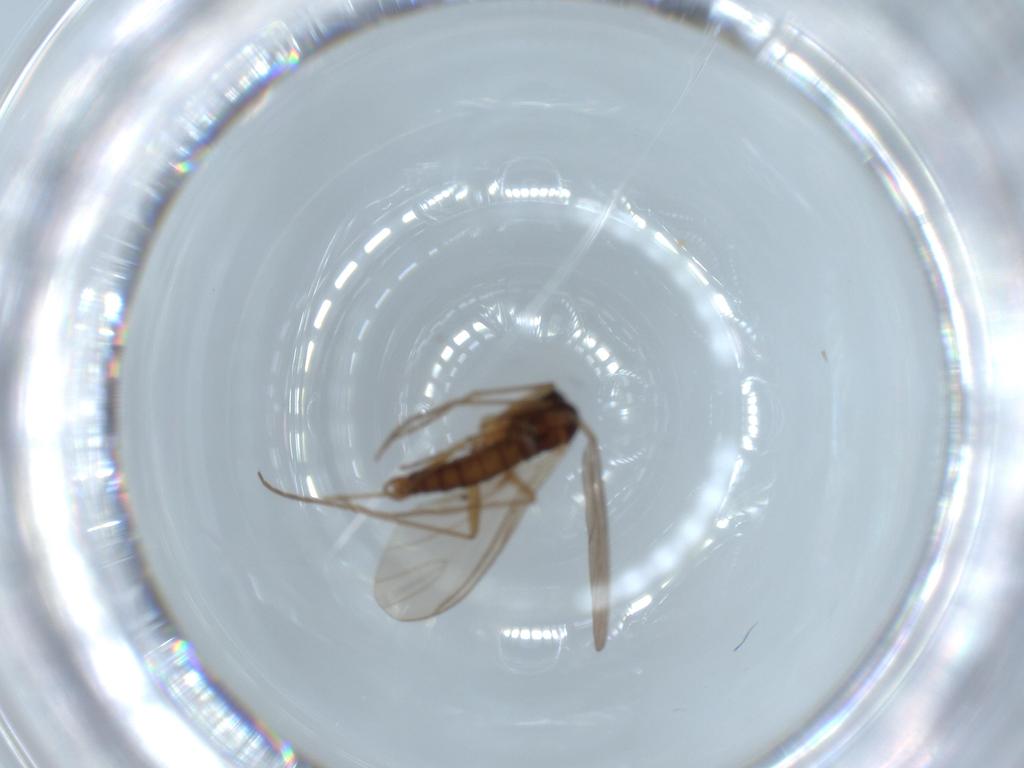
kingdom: Animalia
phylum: Arthropoda
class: Insecta
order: Diptera
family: Sciaridae
